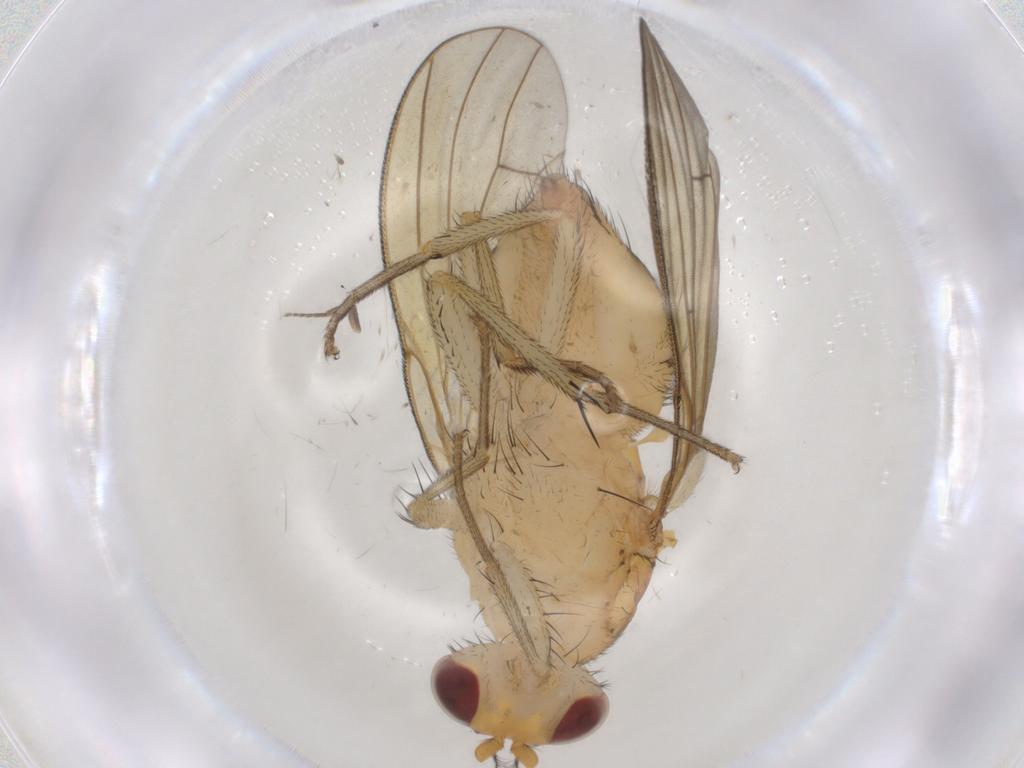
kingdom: Animalia
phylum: Arthropoda
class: Insecta
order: Diptera
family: Cecidomyiidae
